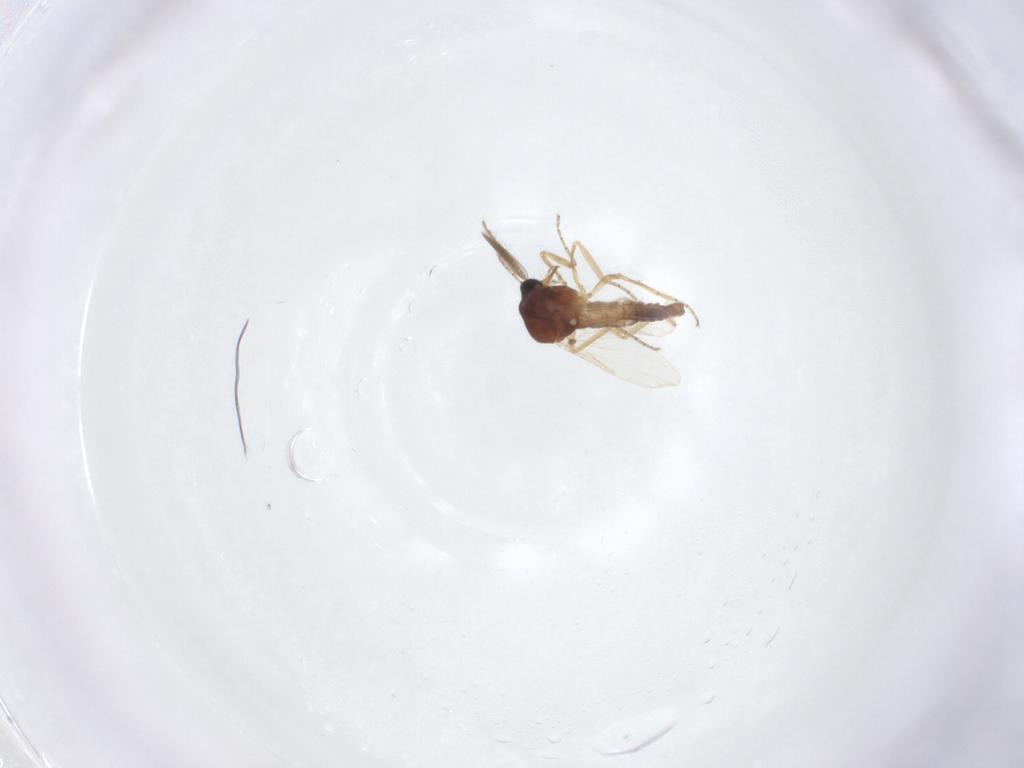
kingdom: Animalia
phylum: Arthropoda
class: Insecta
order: Diptera
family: Ceratopogonidae
